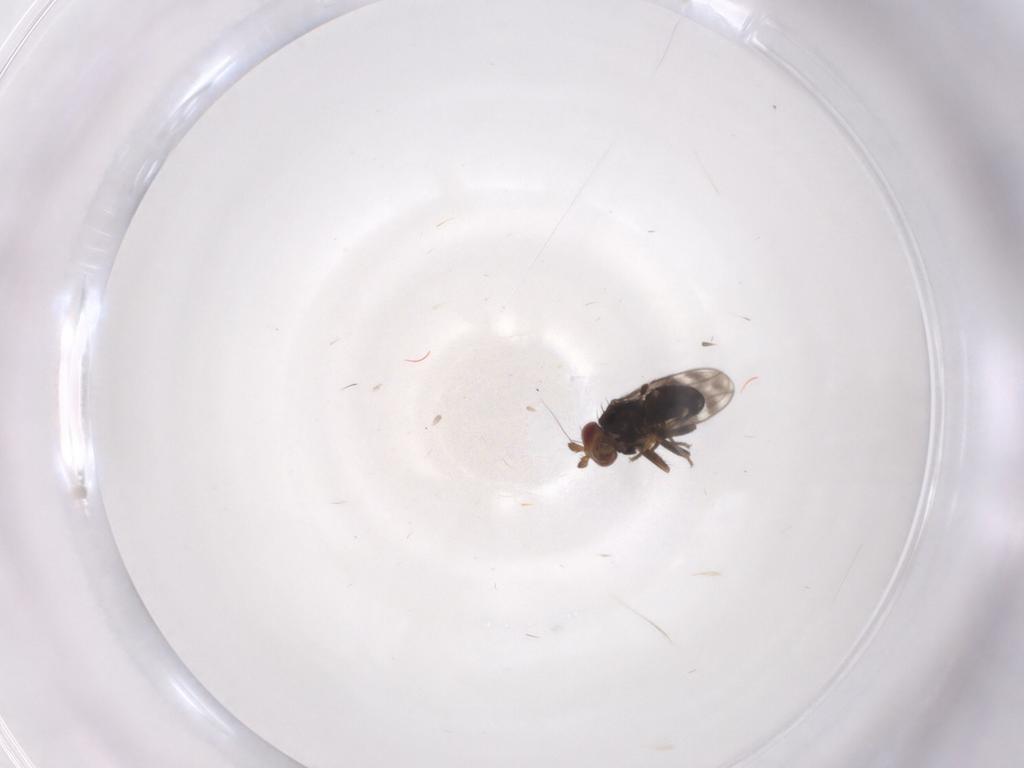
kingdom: Animalia
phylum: Arthropoda
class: Insecta
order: Diptera
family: Sphaeroceridae
